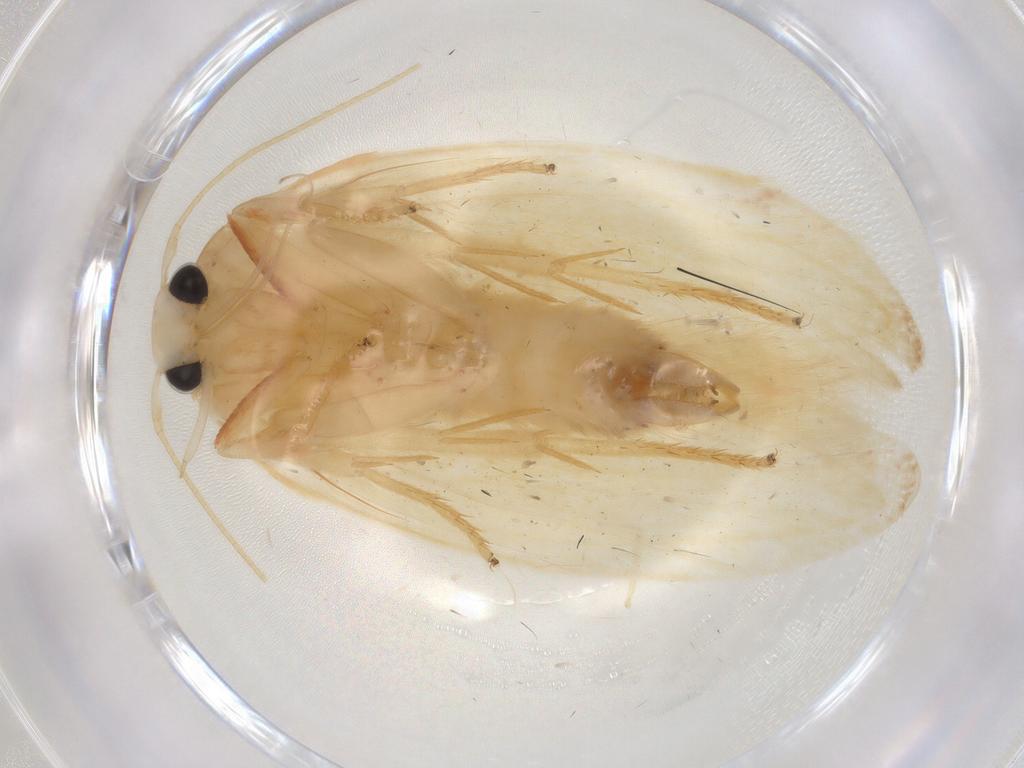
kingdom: Animalia
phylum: Arthropoda
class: Insecta
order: Lepidoptera
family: Erebidae
